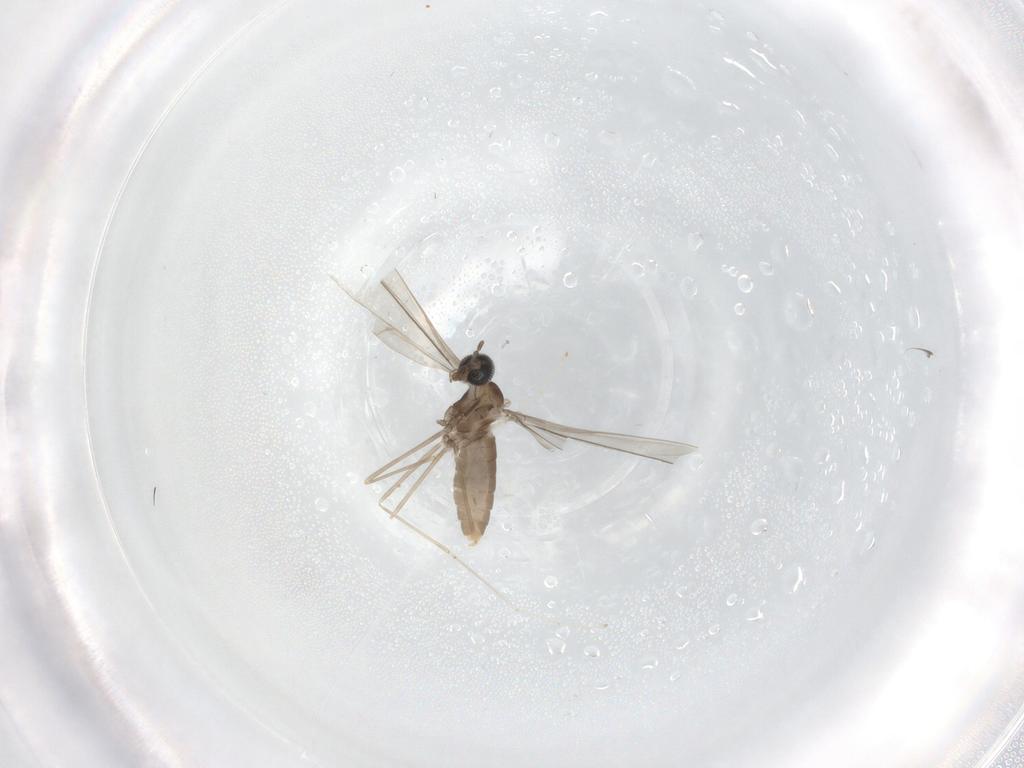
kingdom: Animalia
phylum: Arthropoda
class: Insecta
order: Diptera
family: Cecidomyiidae
